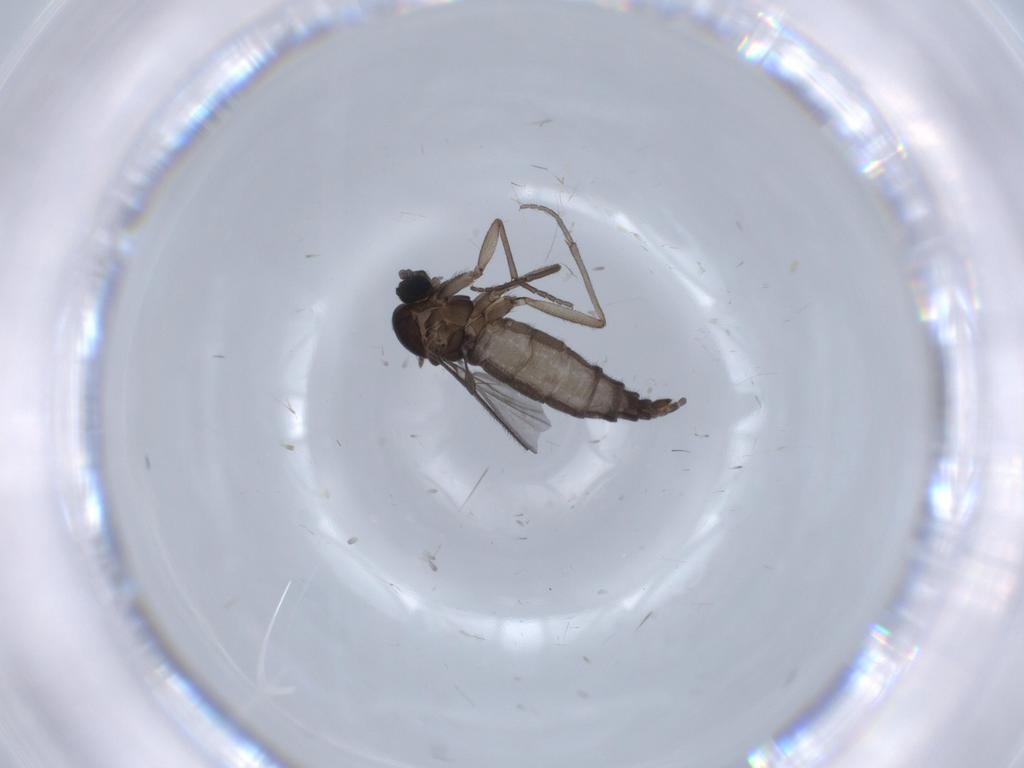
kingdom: Animalia
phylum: Arthropoda
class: Insecta
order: Diptera
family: Sciaridae
